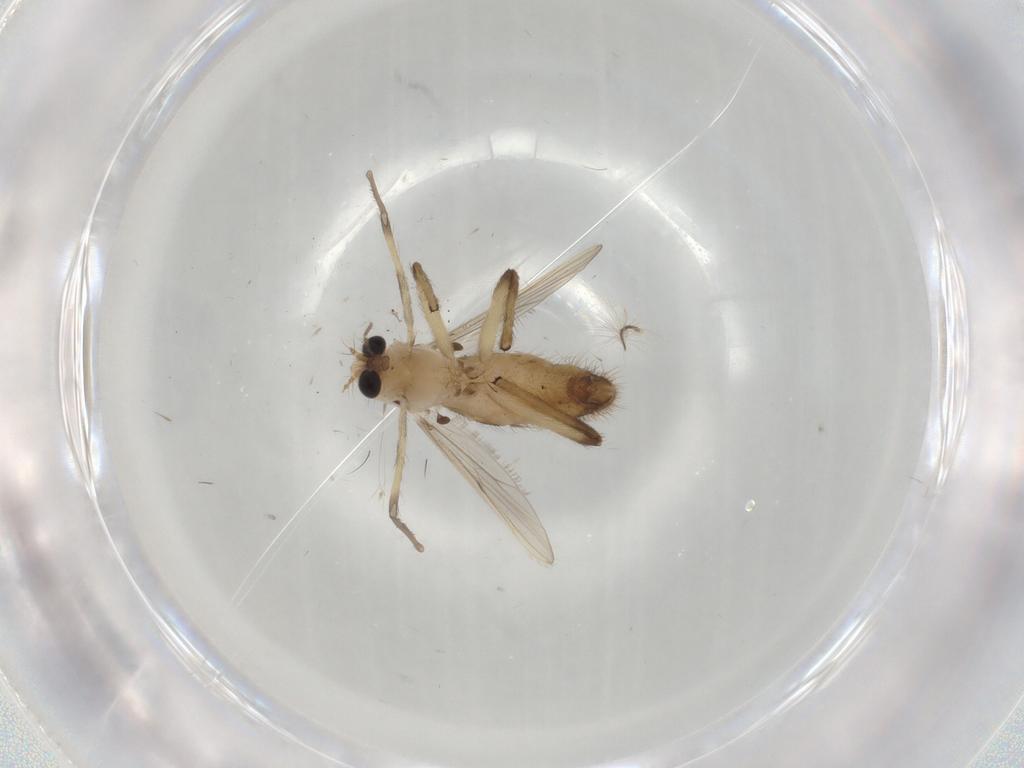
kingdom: Animalia
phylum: Arthropoda
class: Insecta
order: Diptera
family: Chironomidae
